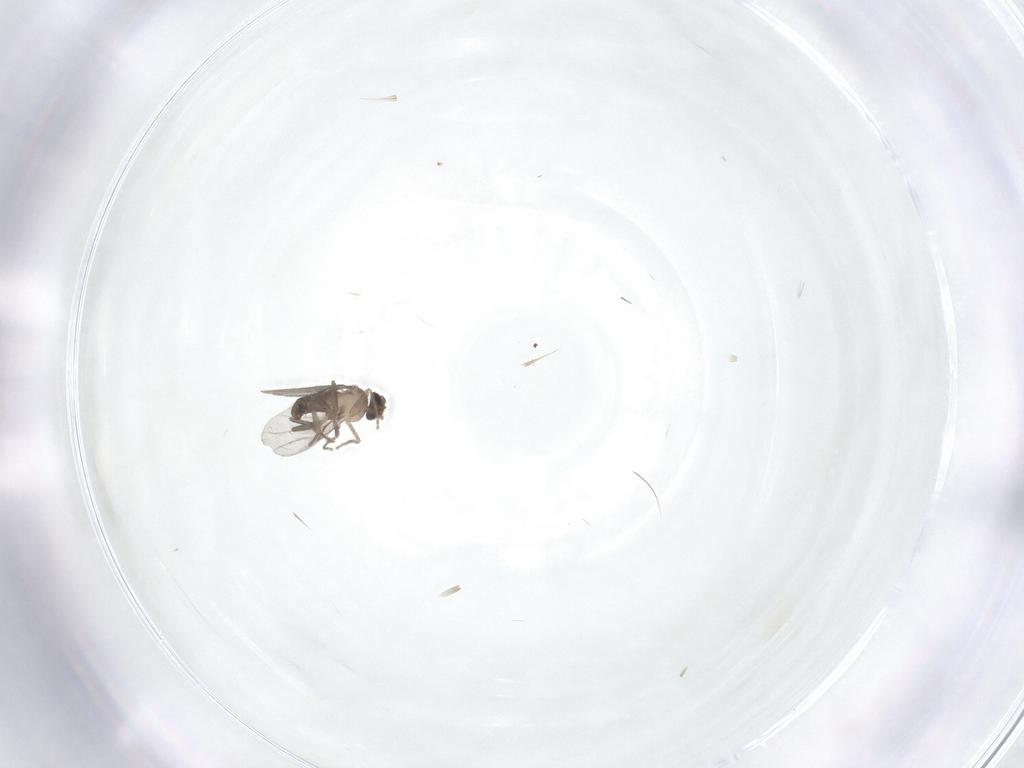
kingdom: Animalia
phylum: Arthropoda
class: Insecta
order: Diptera
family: Phoridae
